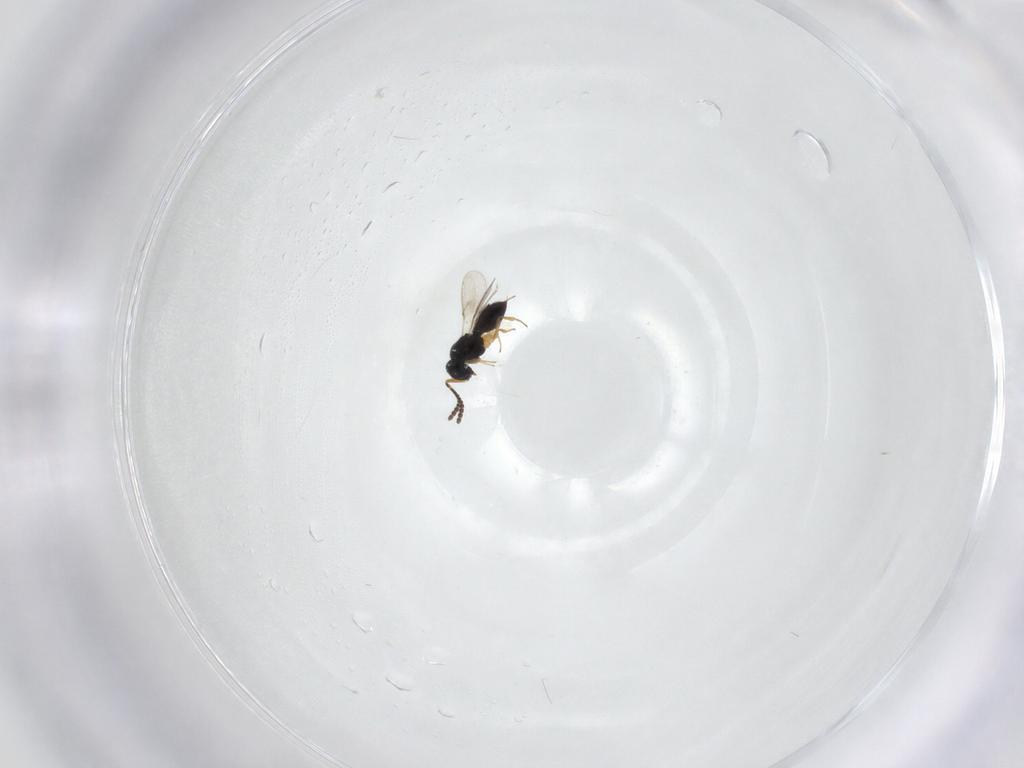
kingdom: Animalia
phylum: Arthropoda
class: Insecta
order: Hymenoptera
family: Scelionidae
